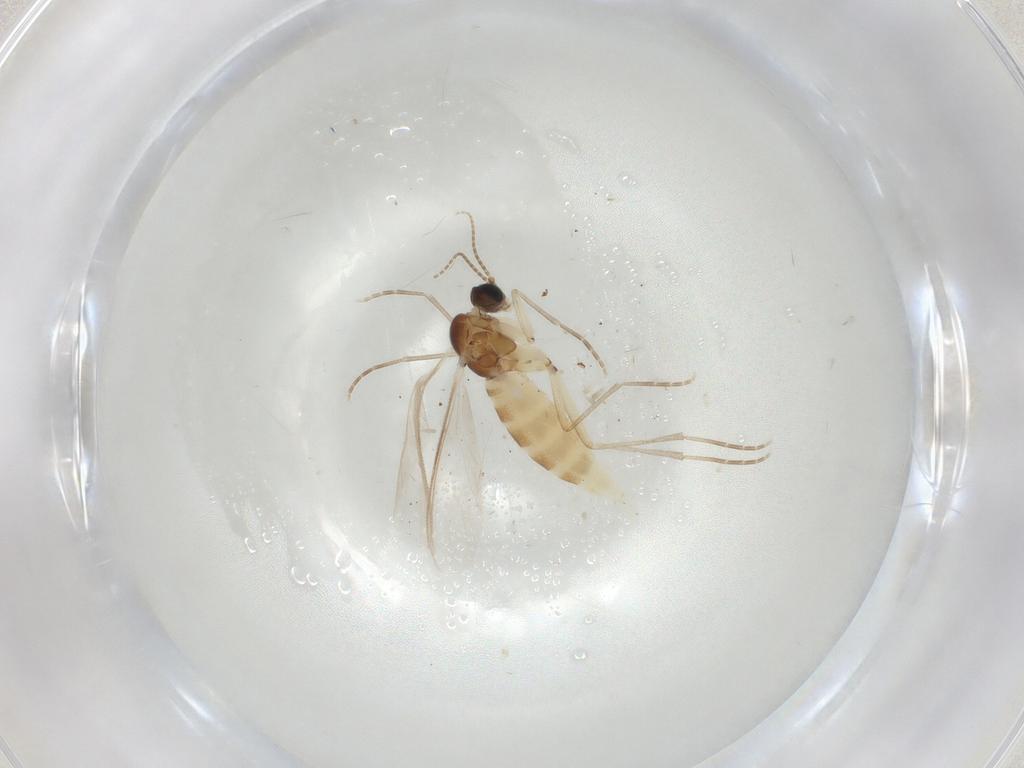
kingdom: Animalia
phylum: Arthropoda
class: Insecta
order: Diptera
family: Sciaridae
